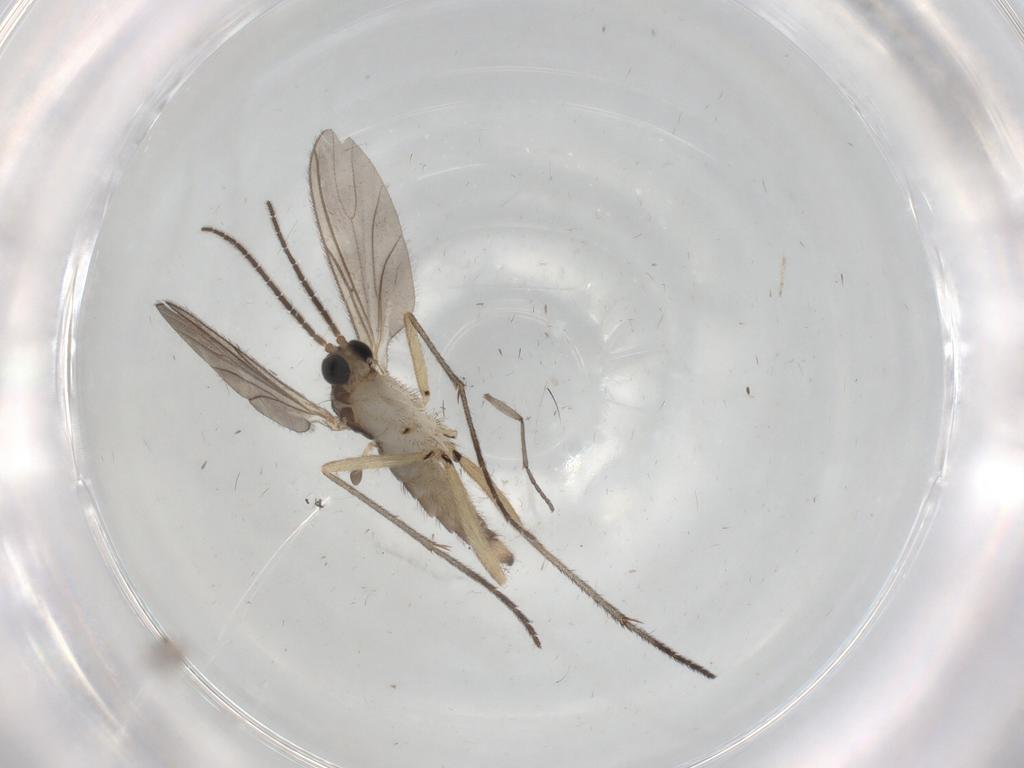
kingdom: Animalia
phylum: Arthropoda
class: Insecta
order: Diptera
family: Sciaridae
